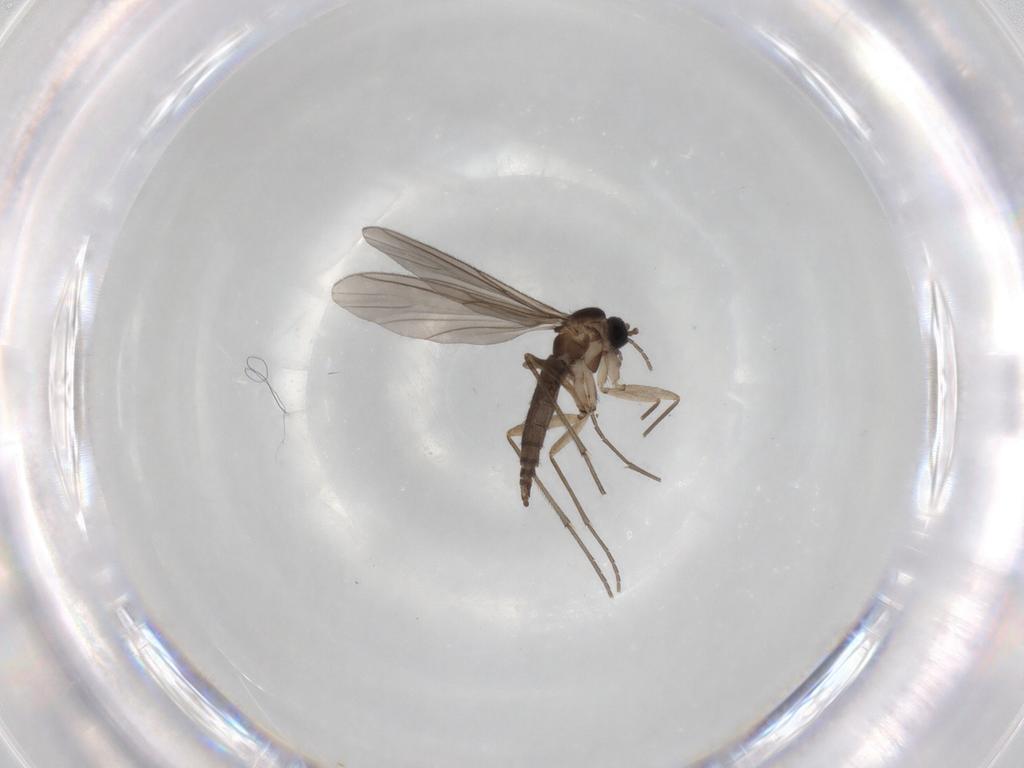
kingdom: Animalia
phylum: Arthropoda
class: Insecta
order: Diptera
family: Sciaridae
